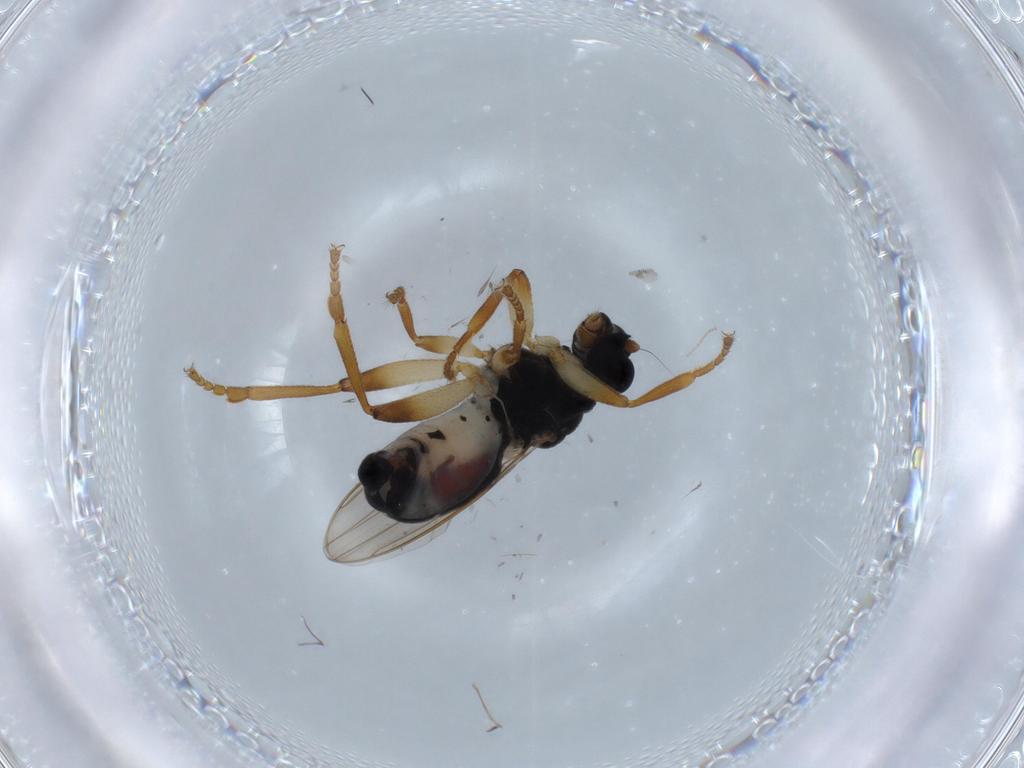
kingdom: Animalia
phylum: Arthropoda
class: Insecta
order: Diptera
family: Sphaeroceridae
